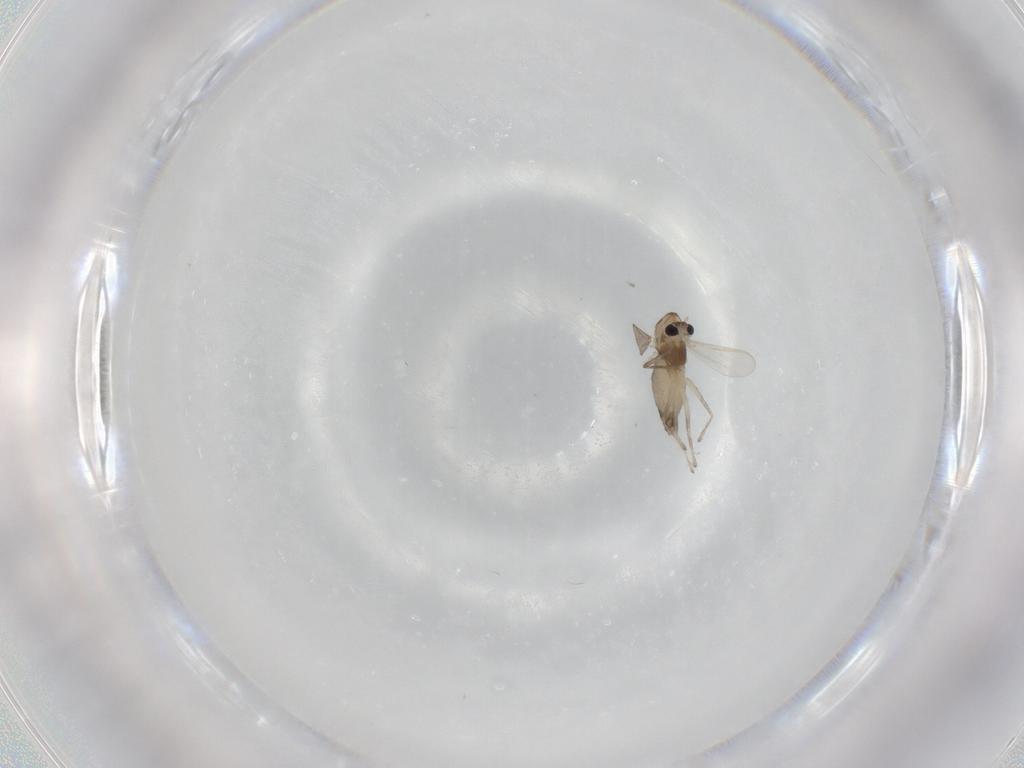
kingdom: Animalia
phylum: Arthropoda
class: Insecta
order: Diptera
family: Chironomidae
